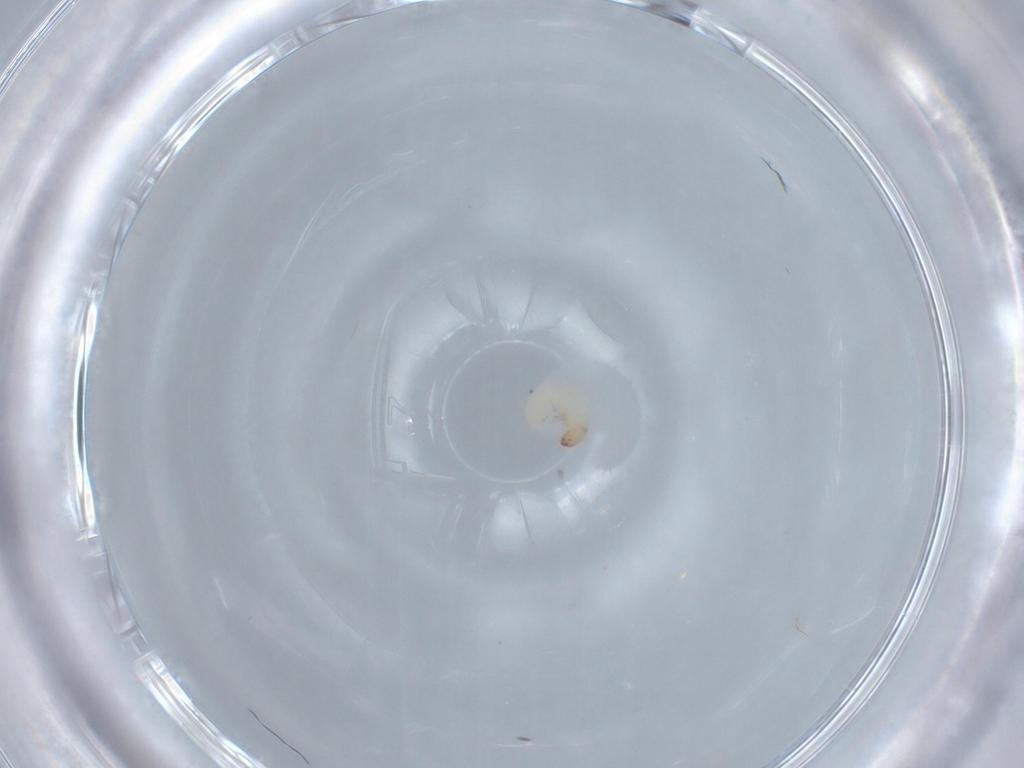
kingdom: Animalia
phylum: Arthropoda
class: Insecta
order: Coleoptera
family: Chrysomelidae
